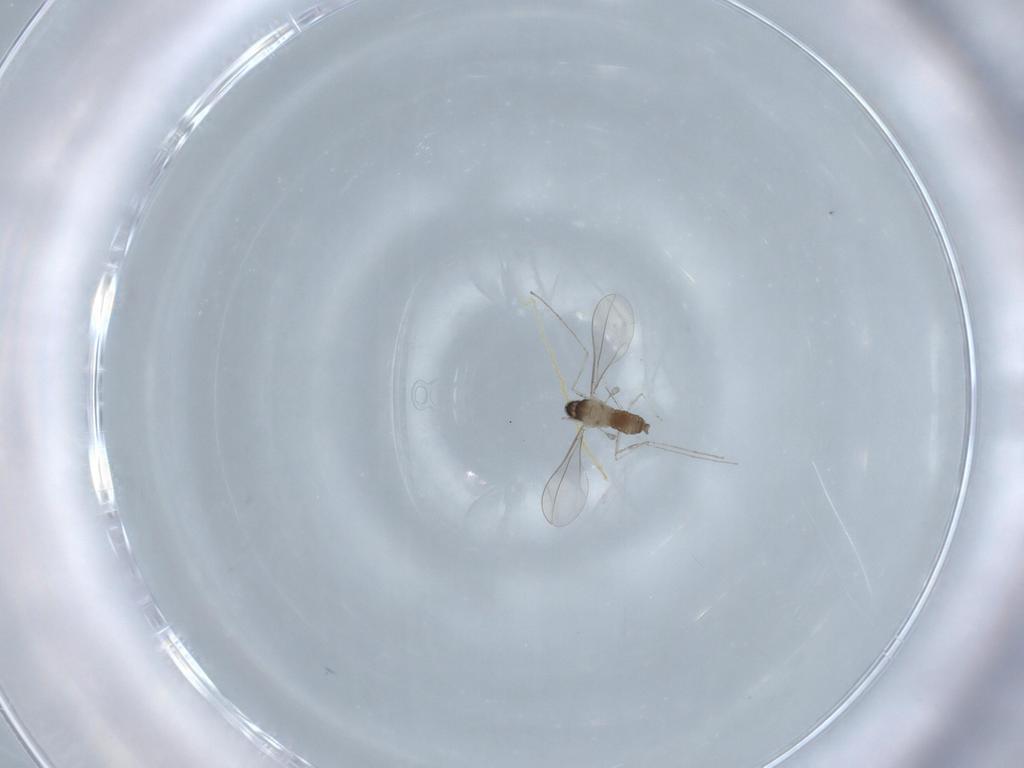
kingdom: Animalia
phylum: Arthropoda
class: Insecta
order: Diptera
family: Cecidomyiidae
